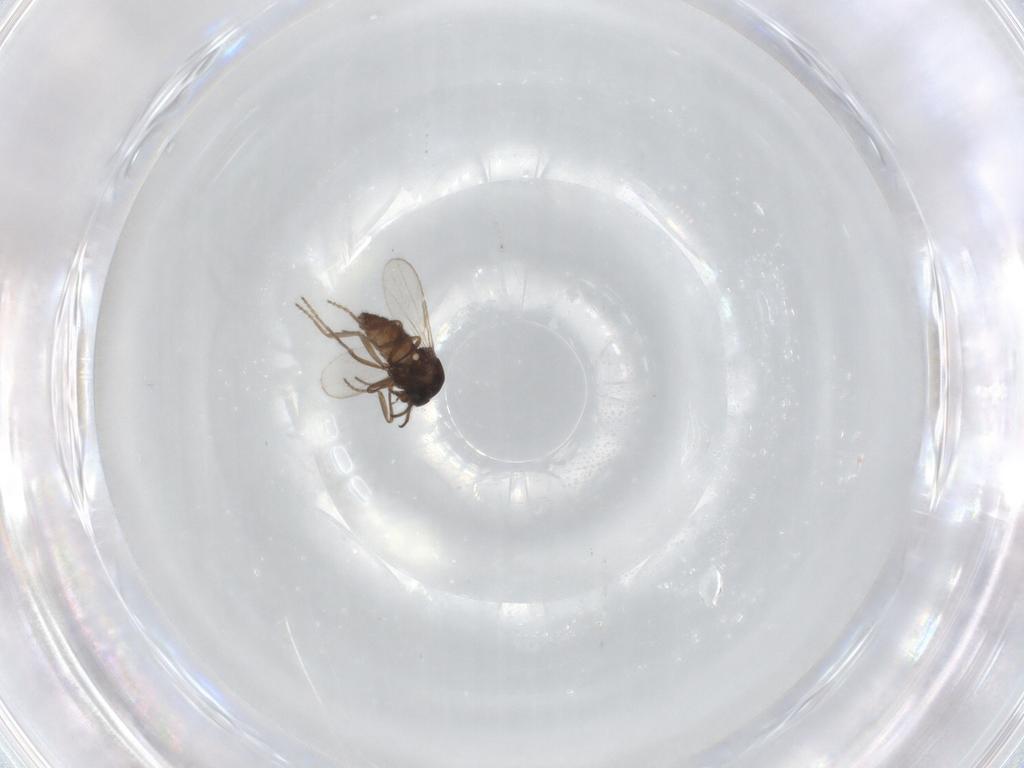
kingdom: Animalia
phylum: Arthropoda
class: Insecta
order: Diptera
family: Ceratopogonidae
